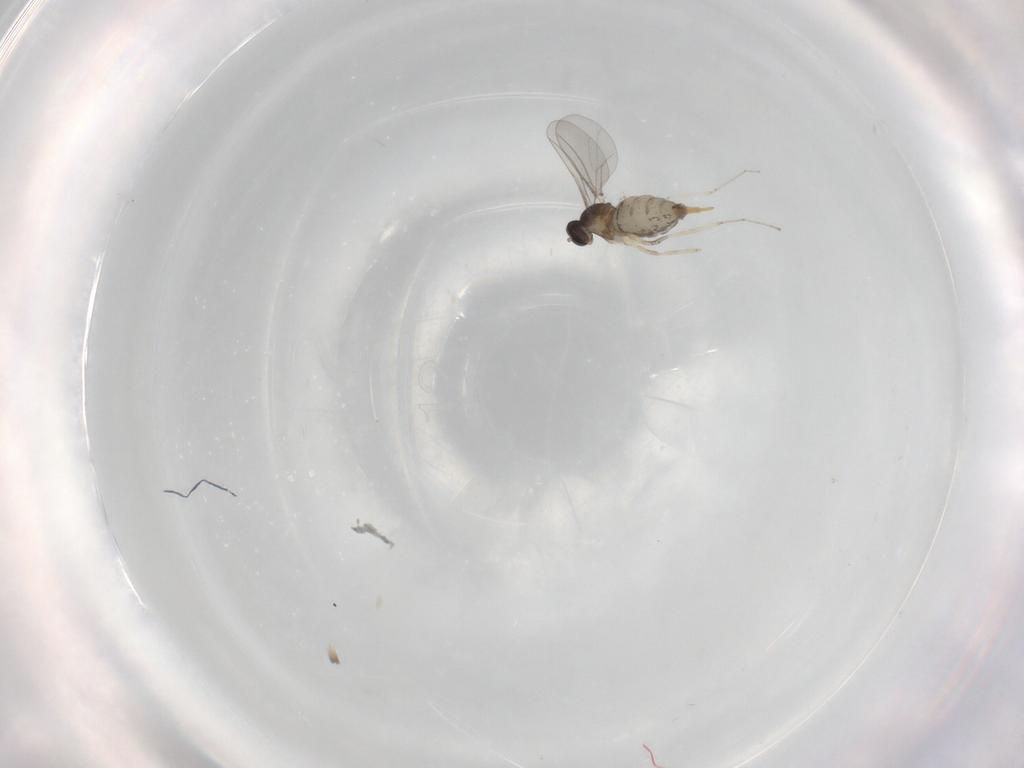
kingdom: Animalia
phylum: Arthropoda
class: Insecta
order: Diptera
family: Cecidomyiidae
